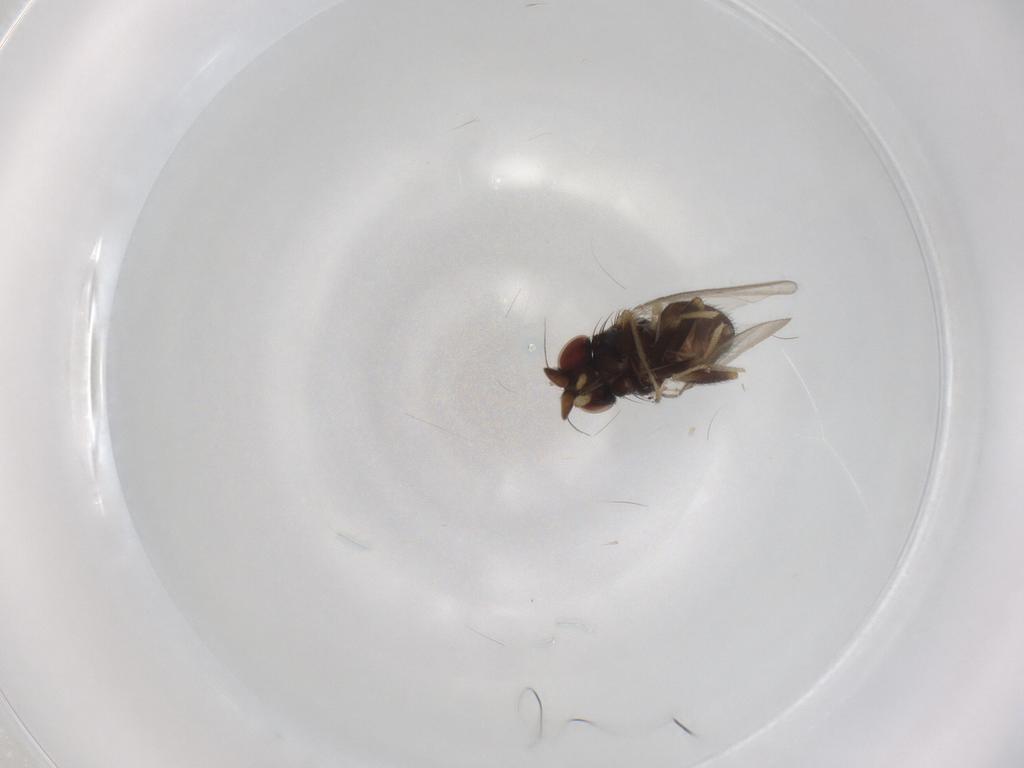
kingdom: Animalia
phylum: Arthropoda
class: Insecta
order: Diptera
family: Milichiidae
